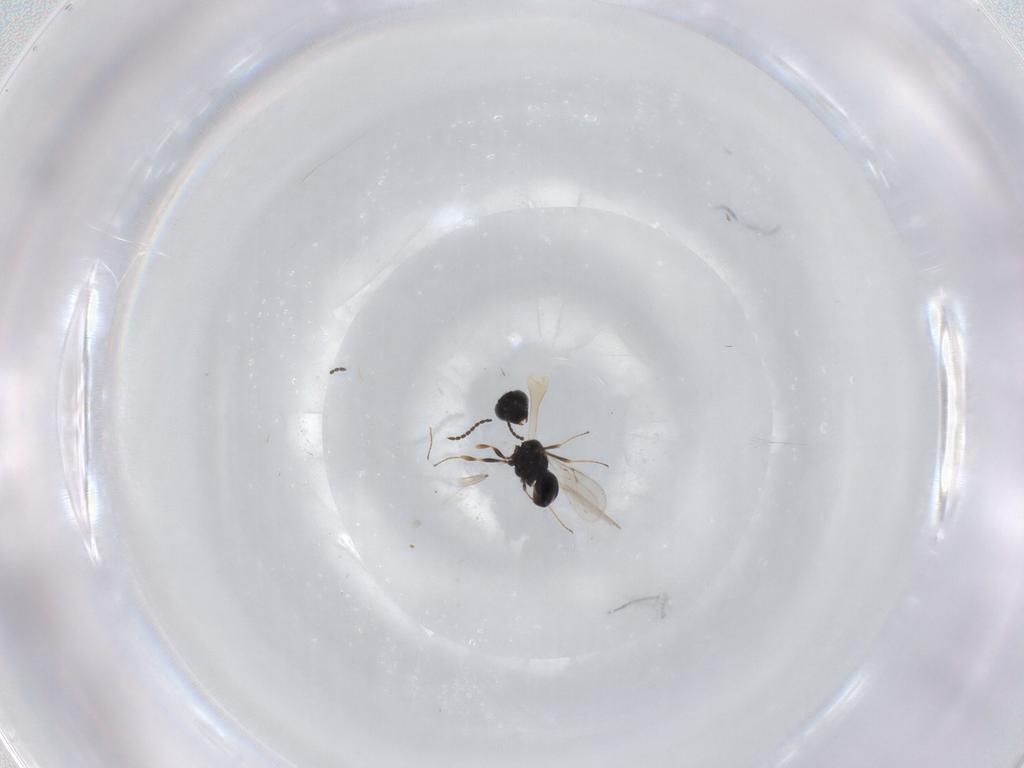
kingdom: Animalia
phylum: Arthropoda
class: Insecta
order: Hymenoptera
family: Scelionidae
